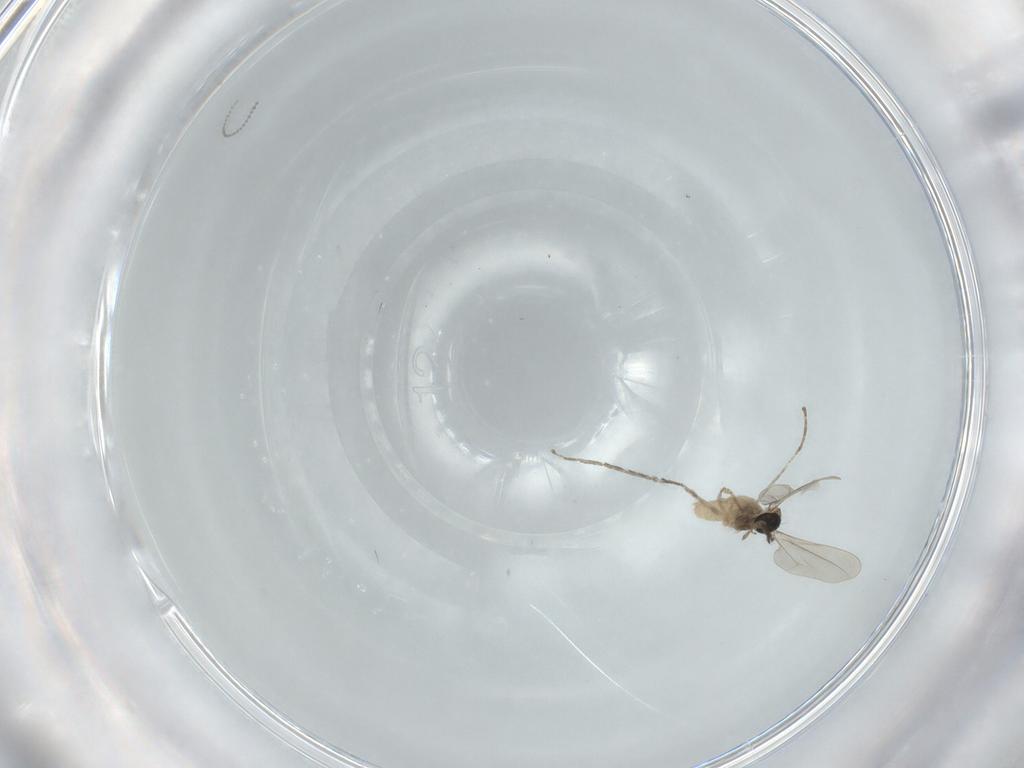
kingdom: Animalia
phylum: Arthropoda
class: Insecta
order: Diptera
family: Cecidomyiidae
